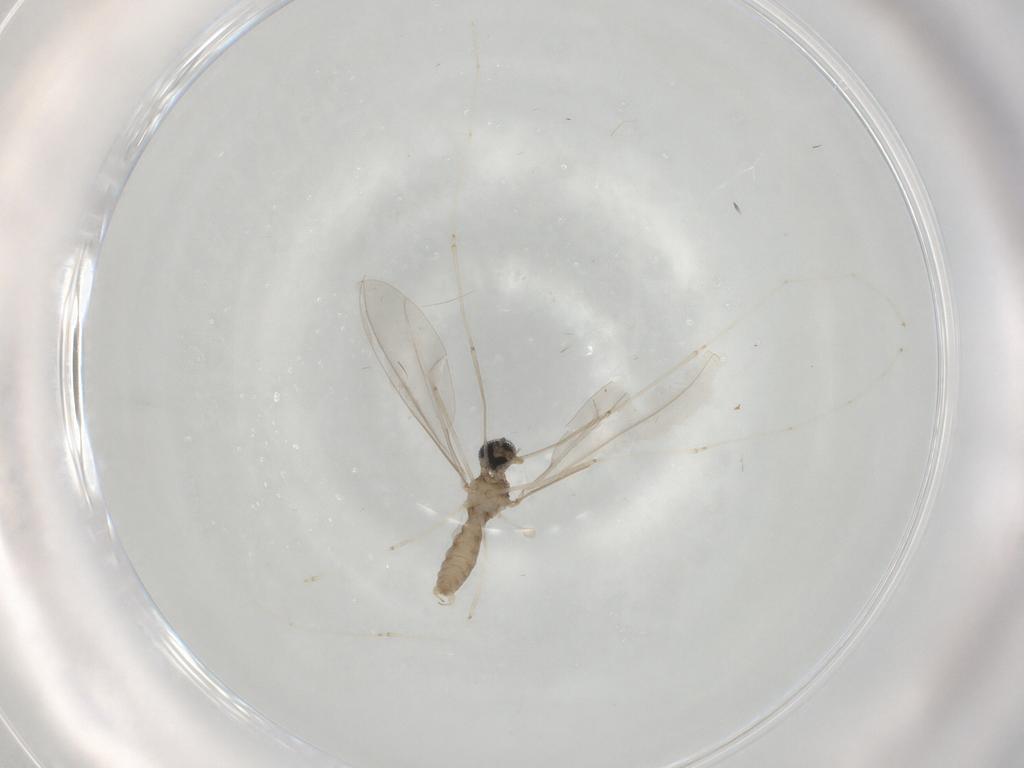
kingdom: Animalia
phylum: Arthropoda
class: Insecta
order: Diptera
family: Cecidomyiidae
